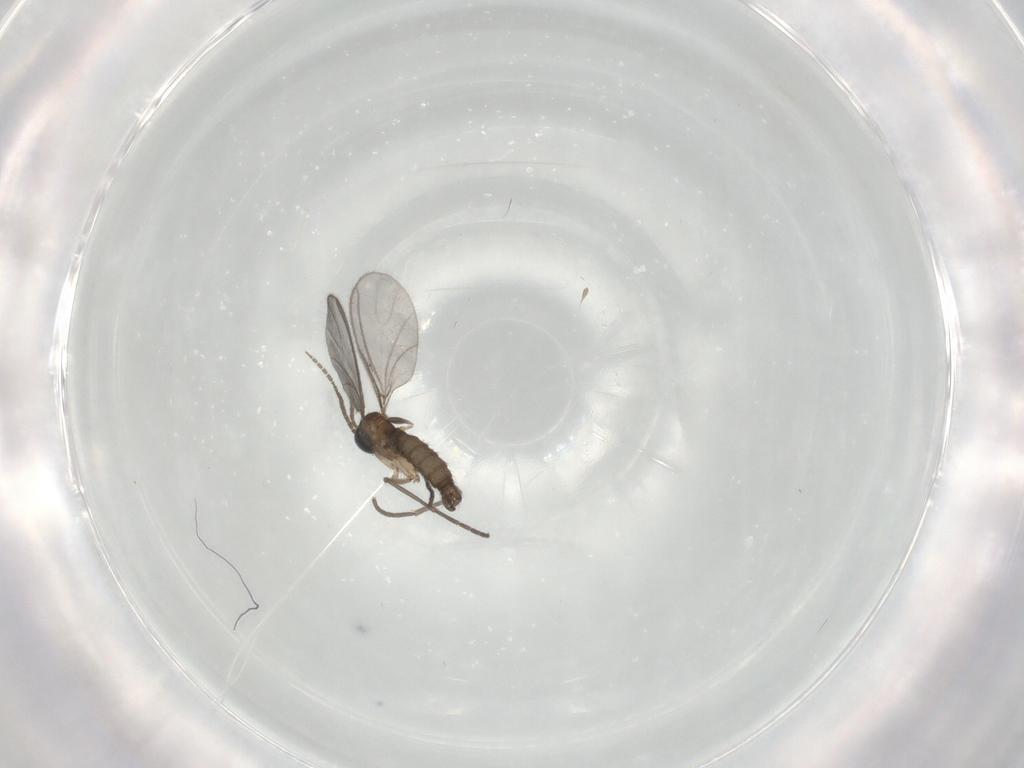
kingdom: Animalia
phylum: Arthropoda
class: Insecta
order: Diptera
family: Sciaridae
